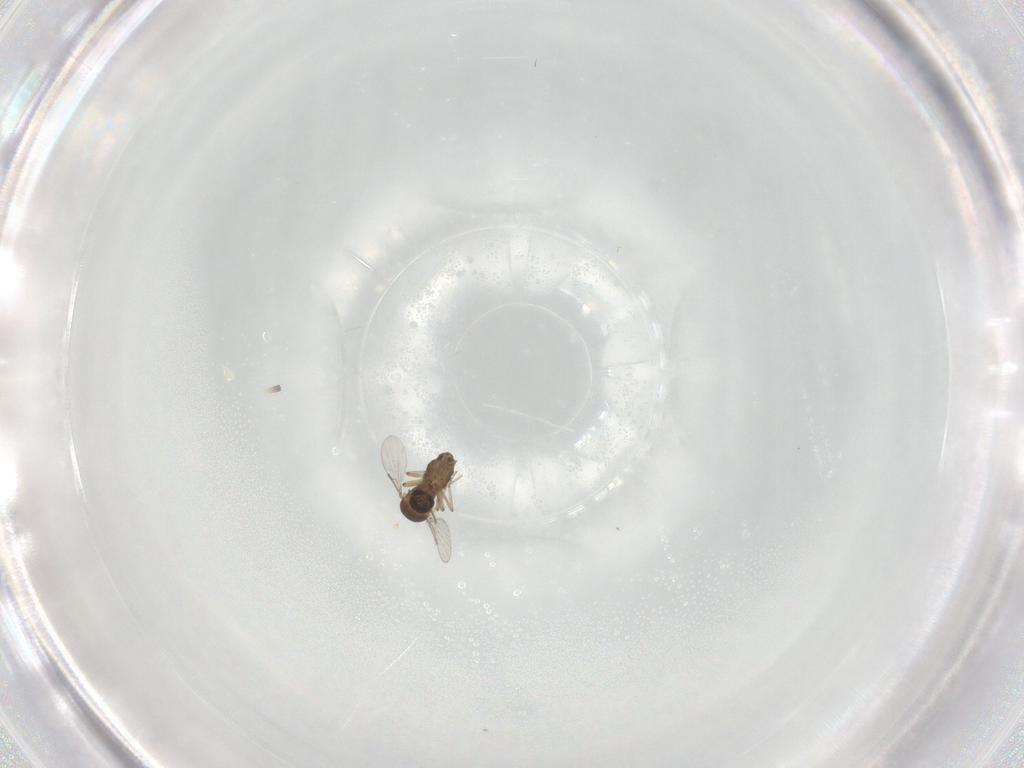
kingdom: Animalia
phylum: Arthropoda
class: Insecta
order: Diptera
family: Ceratopogonidae
